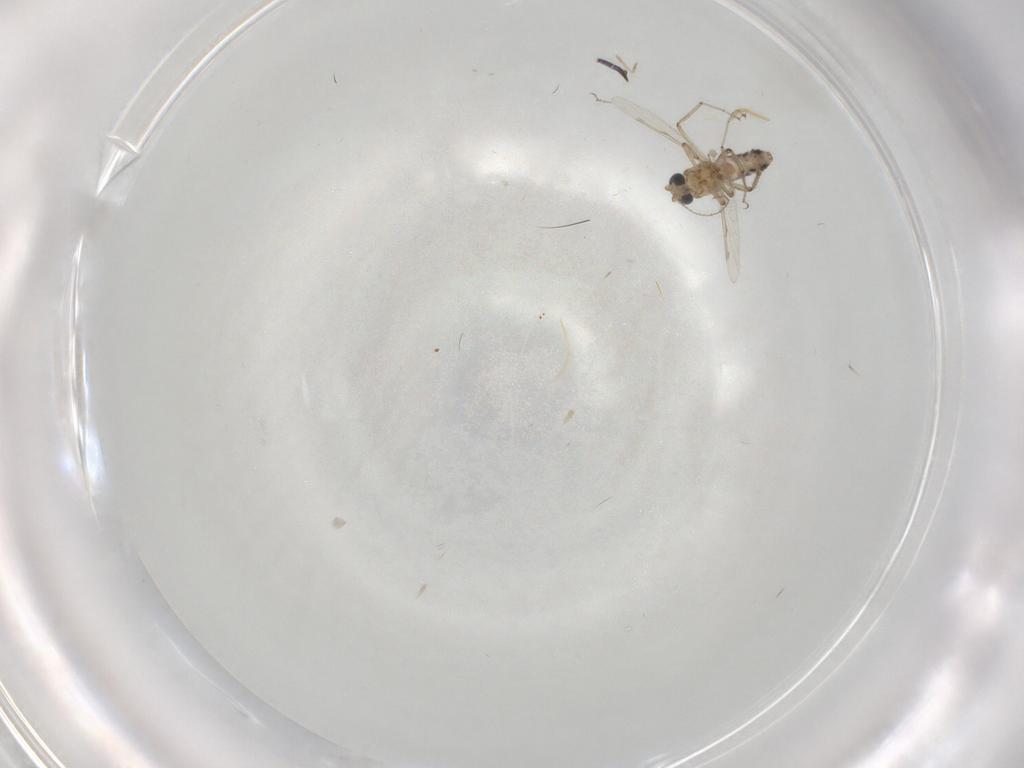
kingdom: Animalia
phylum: Arthropoda
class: Insecta
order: Diptera
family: Ceratopogonidae
